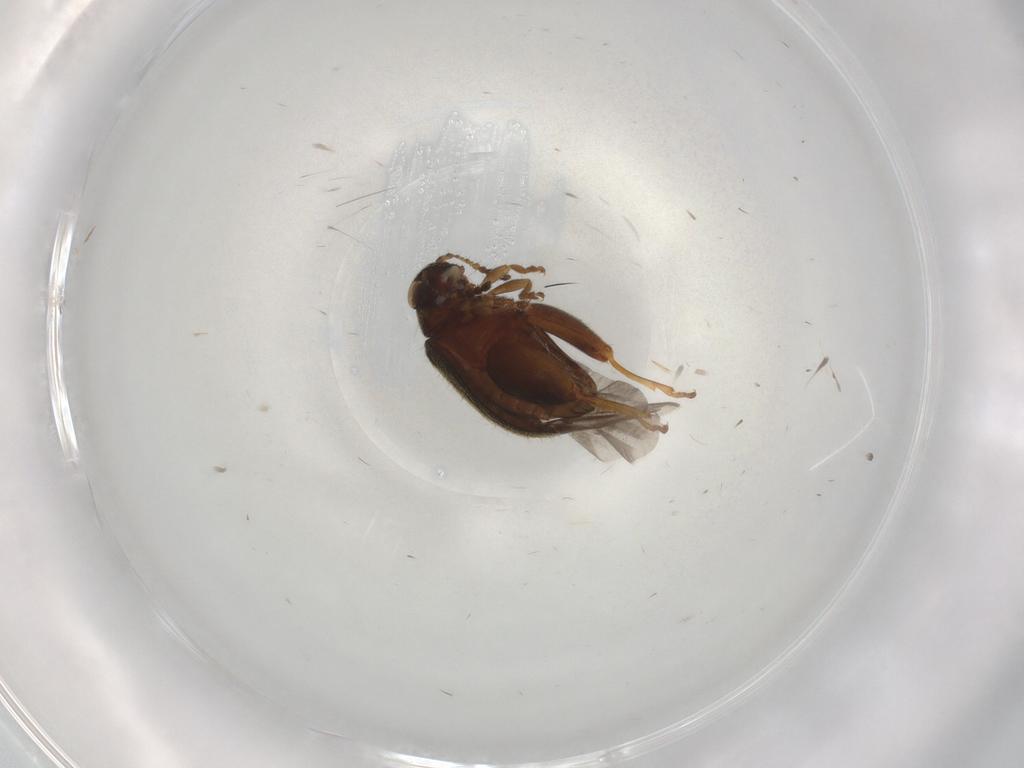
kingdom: Animalia
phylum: Arthropoda
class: Insecta
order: Coleoptera
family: Chrysomelidae
